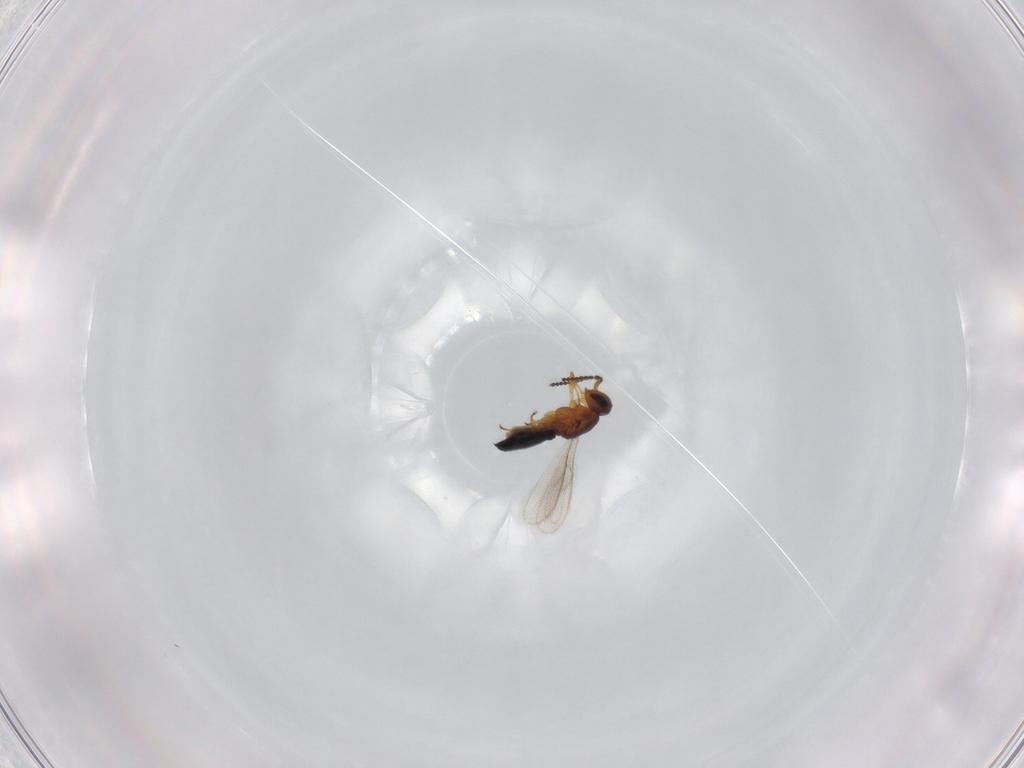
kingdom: Animalia
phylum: Arthropoda
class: Insecta
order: Hymenoptera
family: Scelionidae
